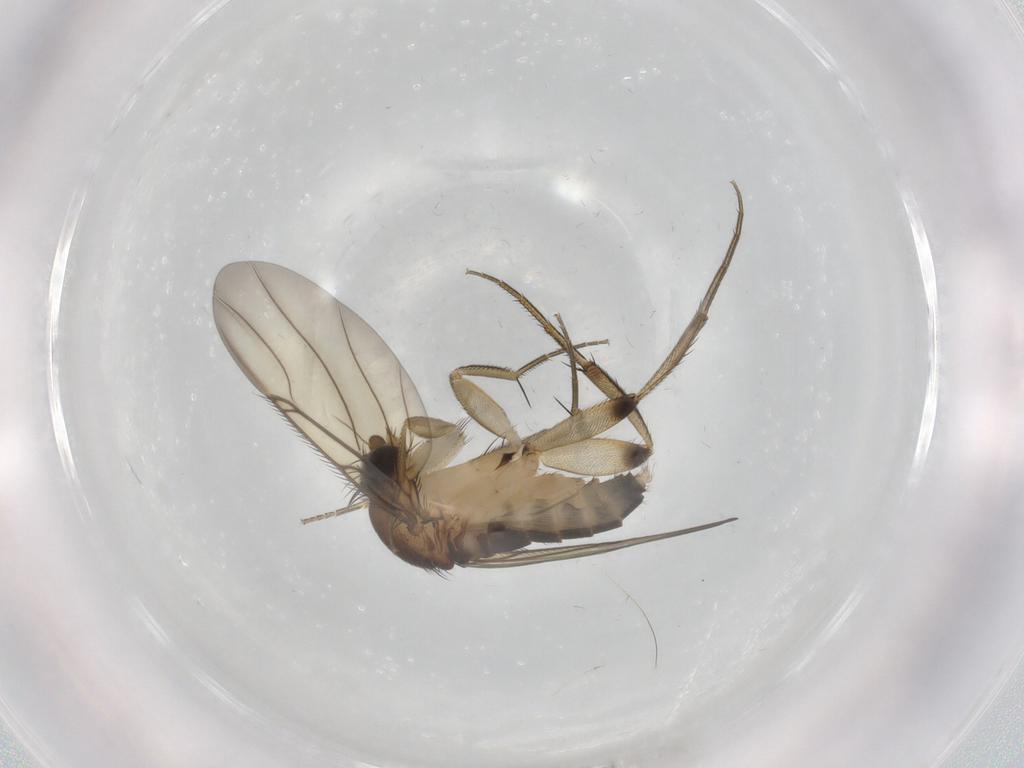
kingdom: Animalia
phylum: Arthropoda
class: Insecta
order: Diptera
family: Sciaridae
